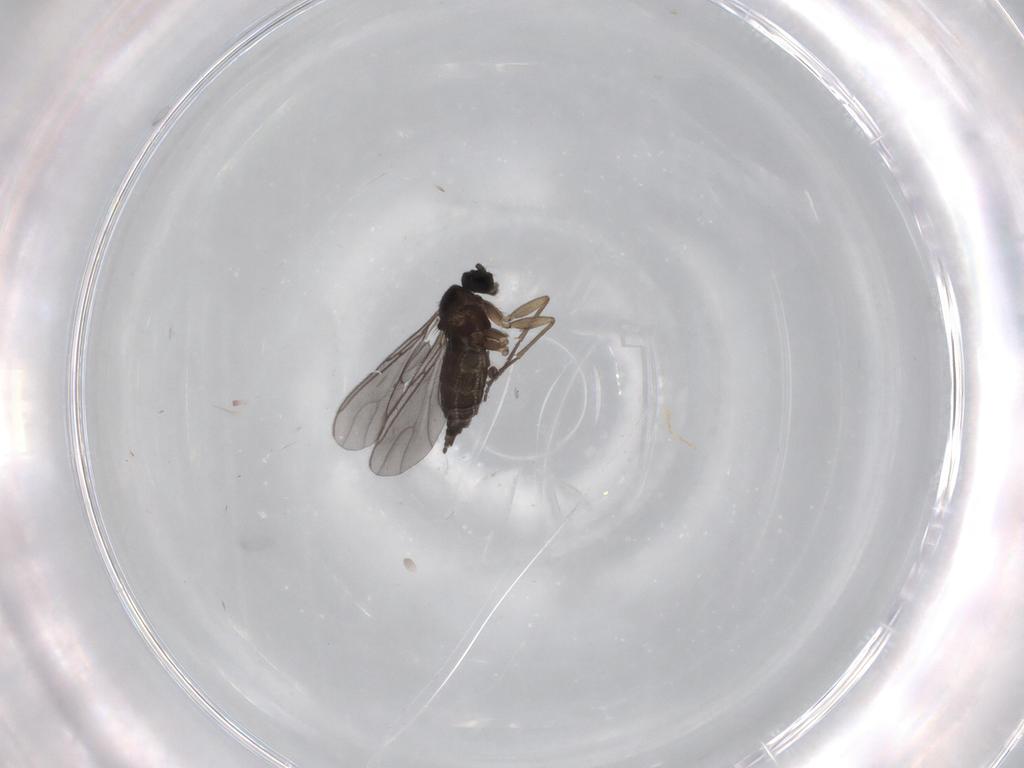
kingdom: Animalia
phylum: Arthropoda
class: Insecta
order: Diptera
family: Sciaridae
